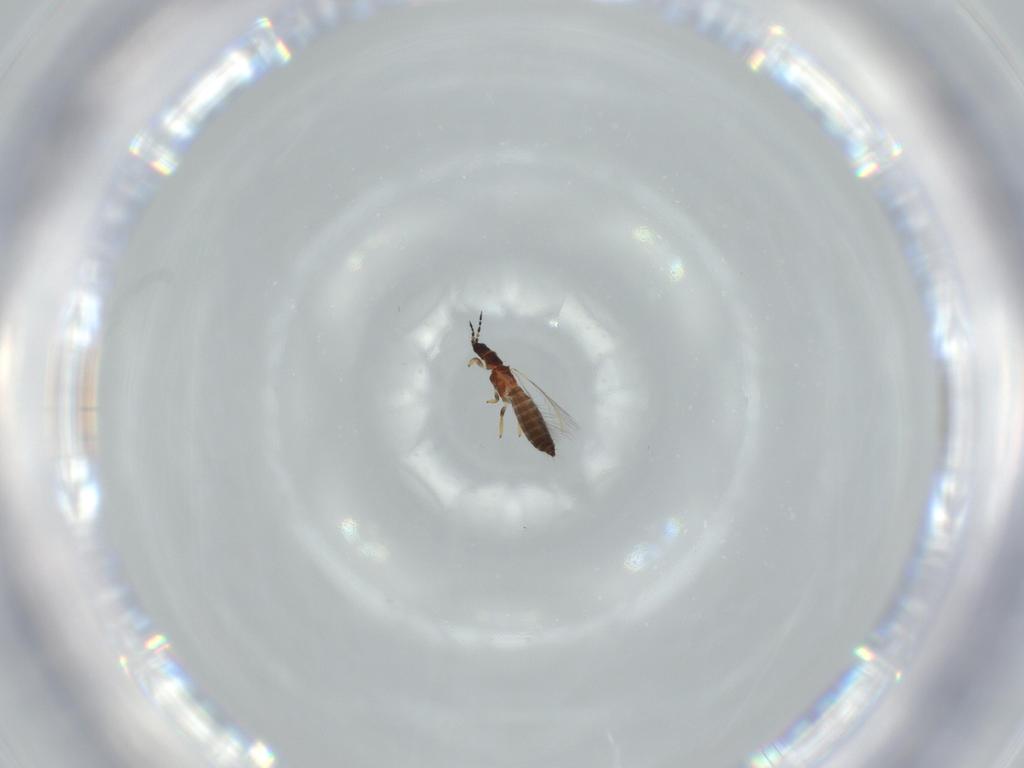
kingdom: Animalia
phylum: Arthropoda
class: Insecta
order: Thysanoptera
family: Thripidae
